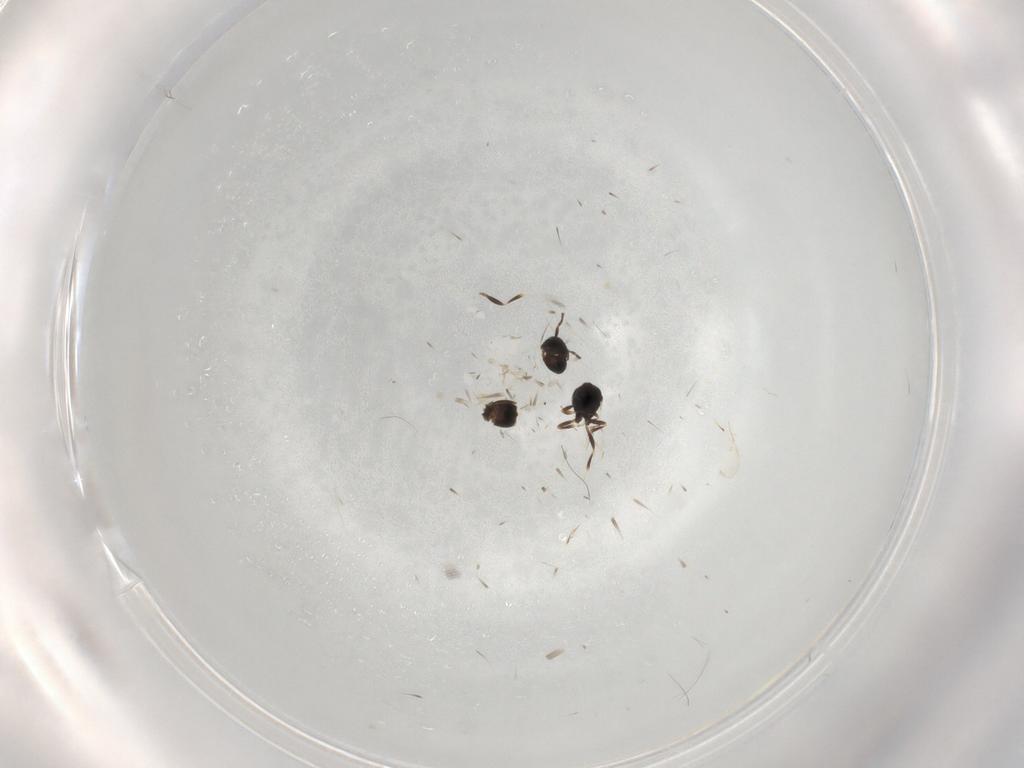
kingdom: Animalia
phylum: Arthropoda
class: Insecta
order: Hymenoptera
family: Scelionidae
